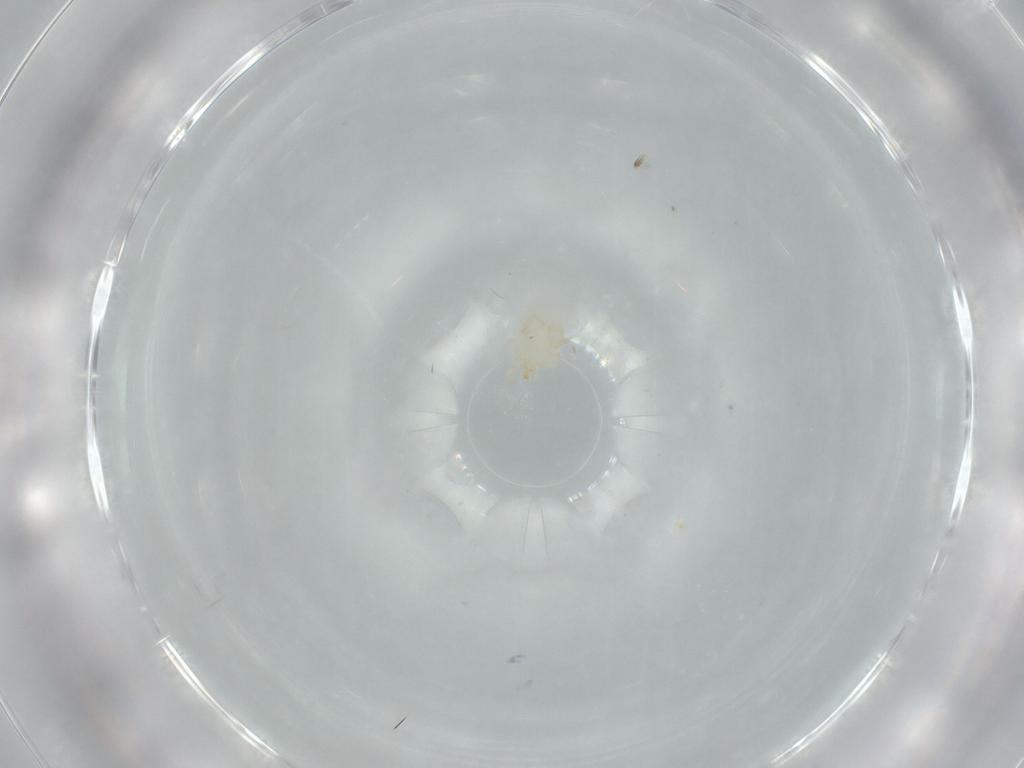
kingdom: Animalia
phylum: Arthropoda
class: Arachnida
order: Trombidiformes
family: Erythraeidae
